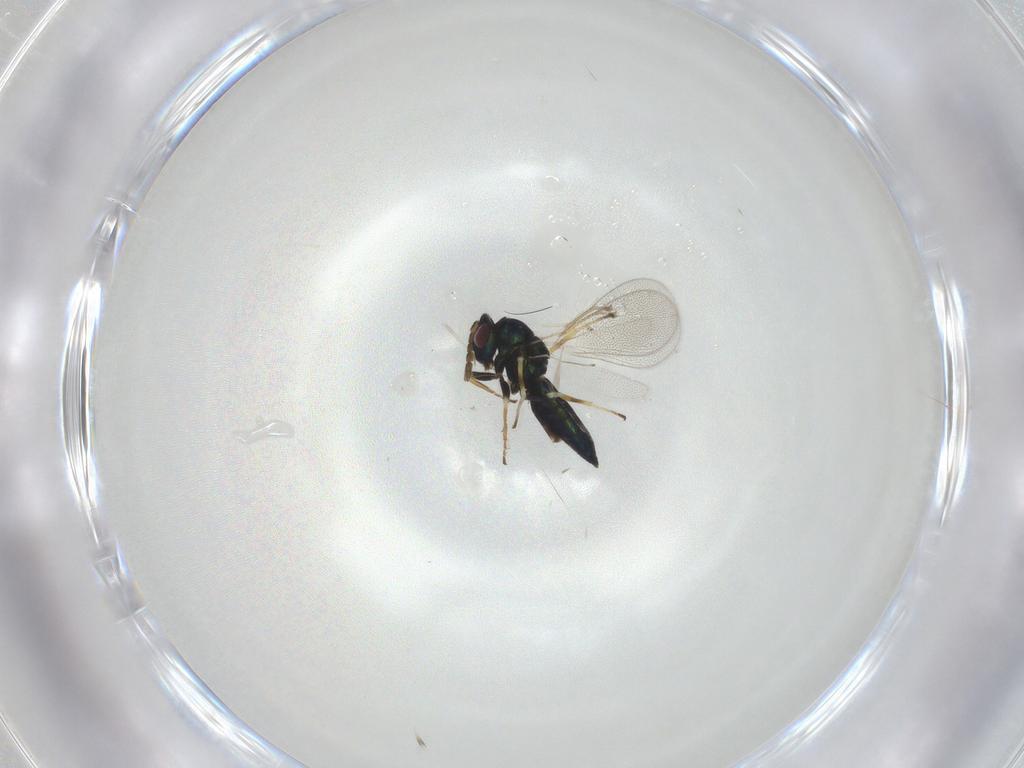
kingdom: Animalia
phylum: Arthropoda
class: Insecta
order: Hymenoptera
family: Eulophidae
